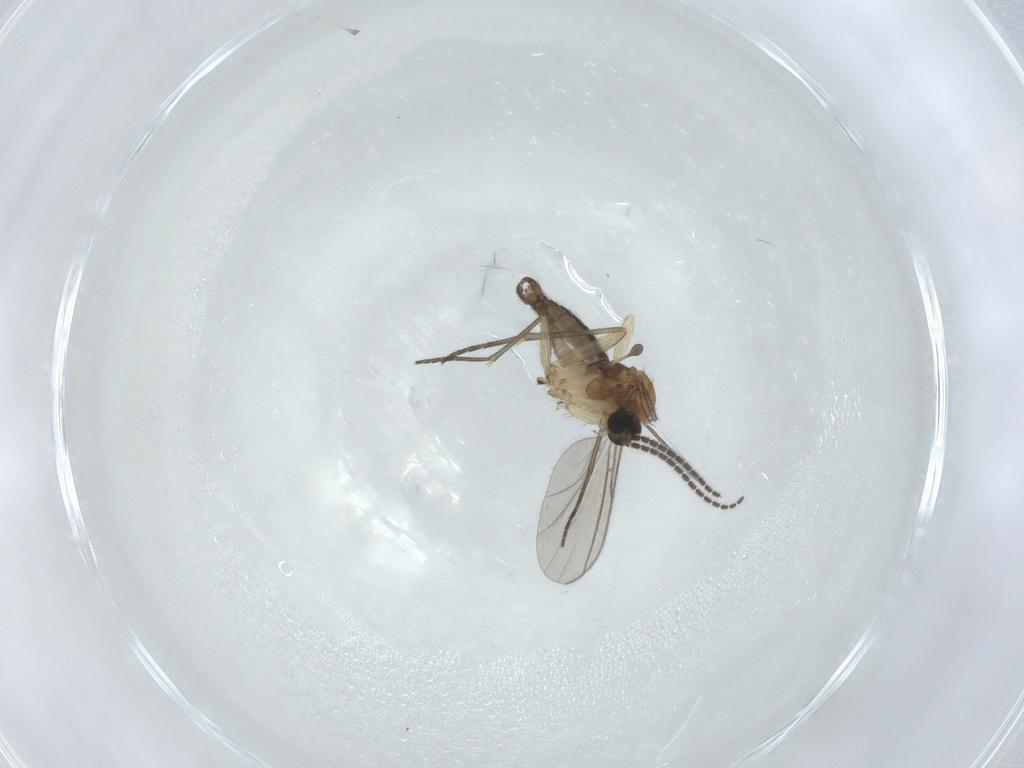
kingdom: Animalia
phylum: Arthropoda
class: Insecta
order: Diptera
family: Sciaridae
